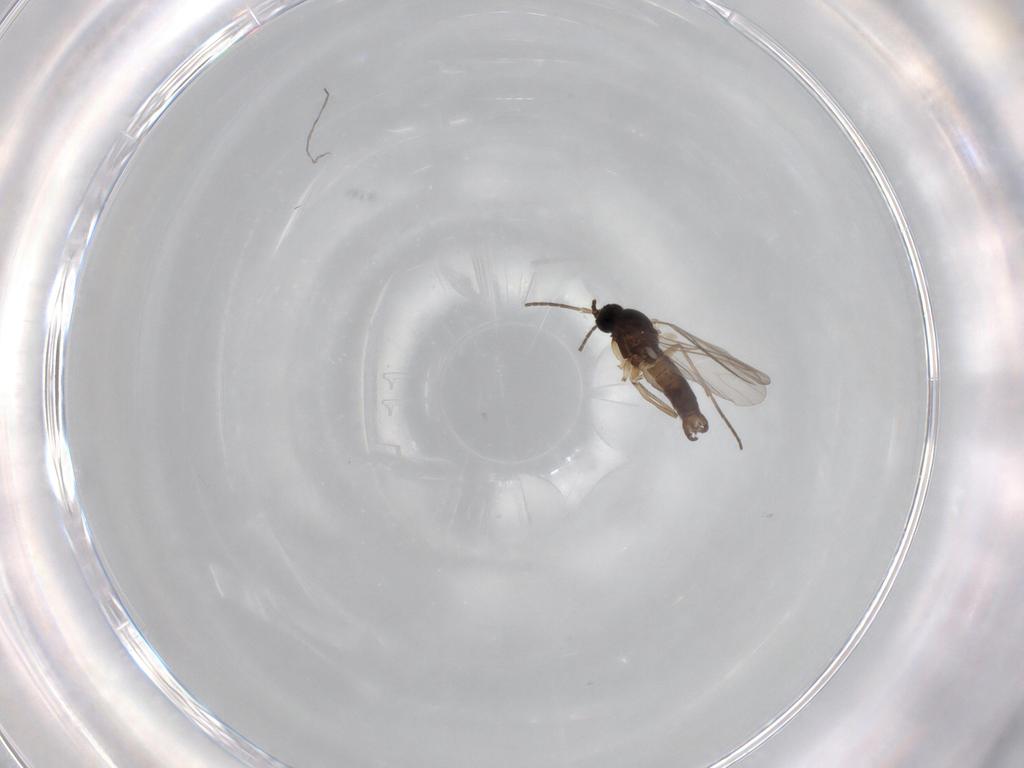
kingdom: Animalia
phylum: Arthropoda
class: Insecta
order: Diptera
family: Sciaridae
